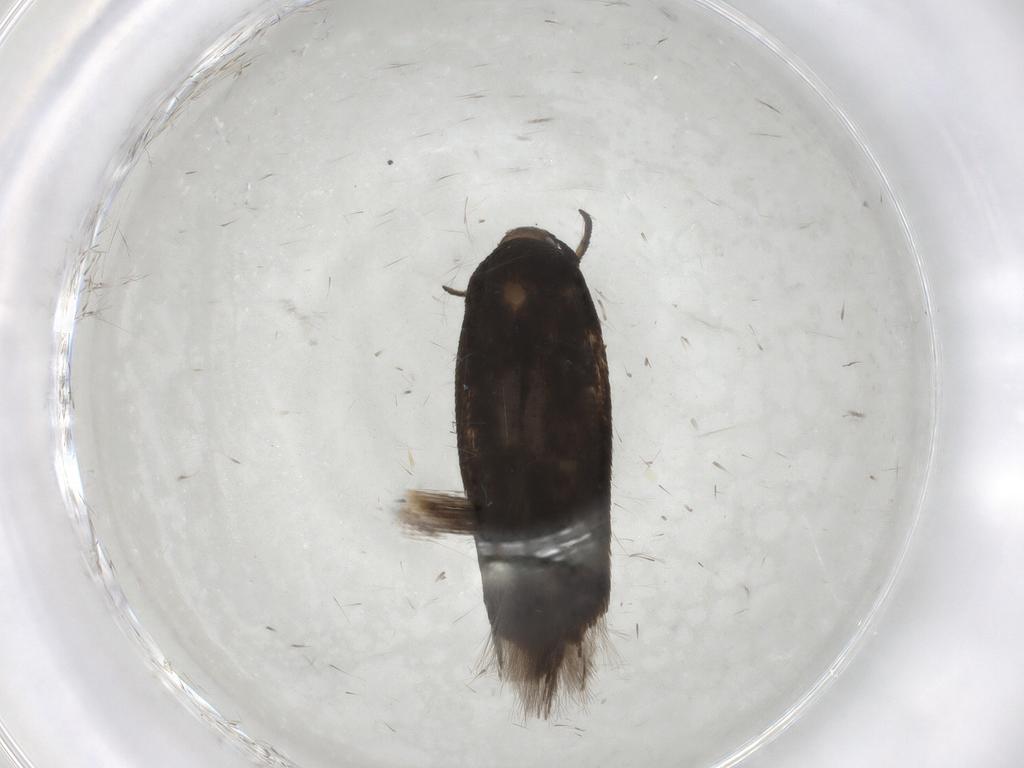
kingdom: Animalia
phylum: Arthropoda
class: Insecta
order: Lepidoptera
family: Cosmopterigidae
